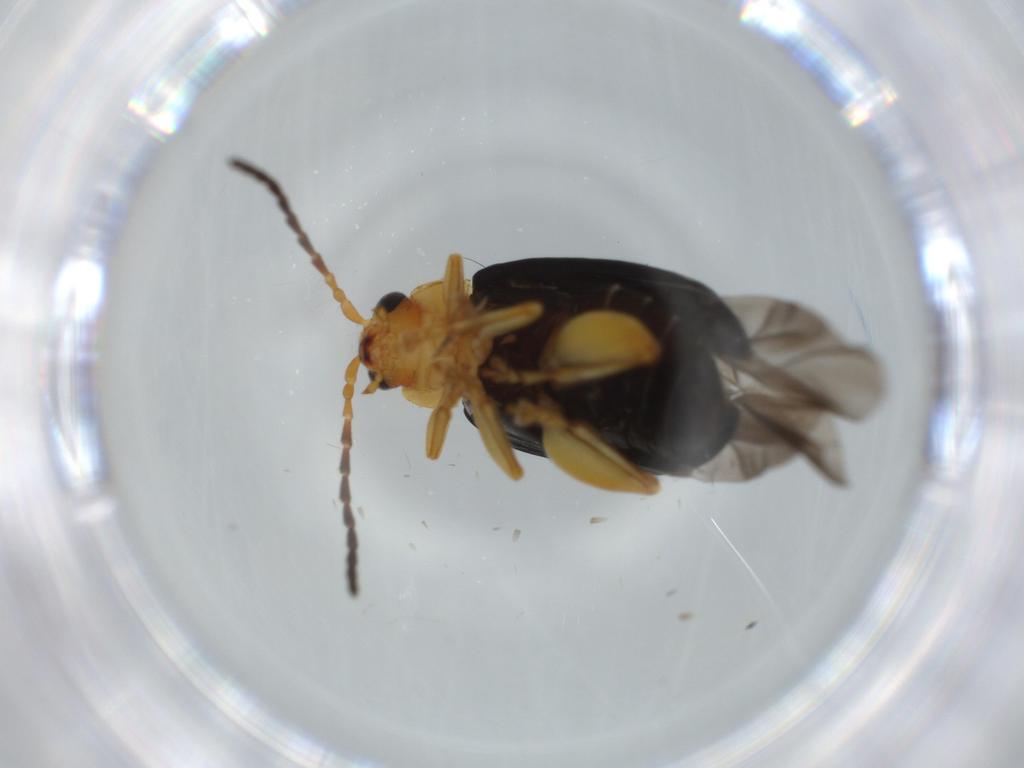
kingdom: Animalia
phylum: Arthropoda
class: Insecta
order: Coleoptera
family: Chrysomelidae
